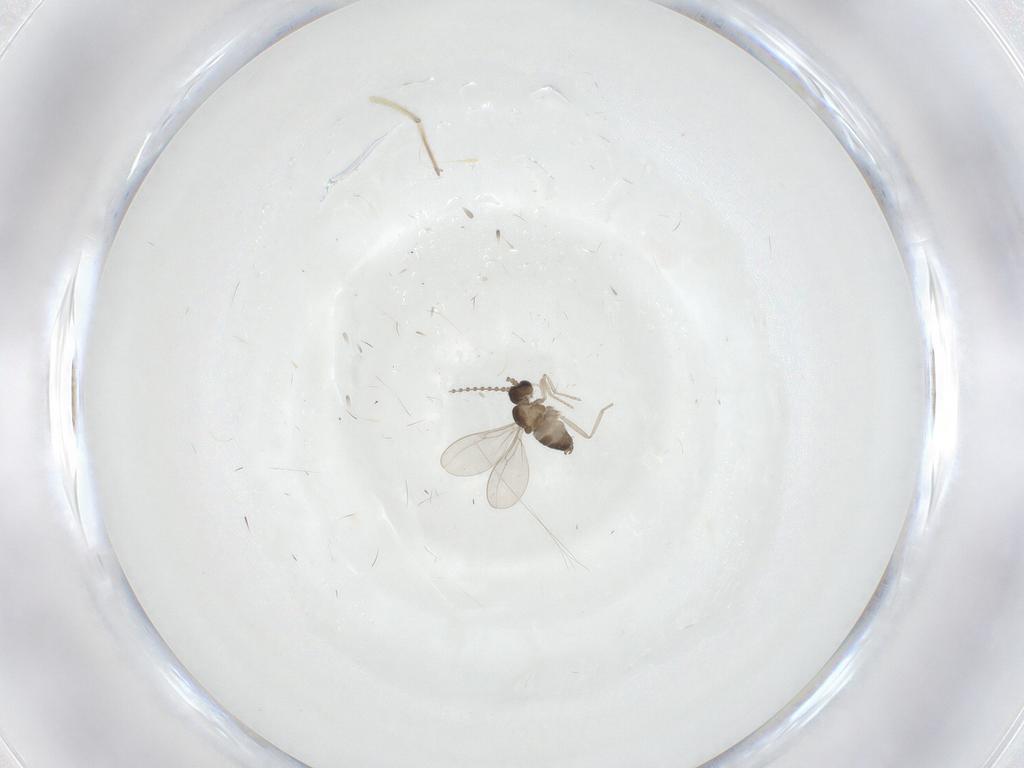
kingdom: Animalia
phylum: Arthropoda
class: Insecta
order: Diptera
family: Cecidomyiidae
